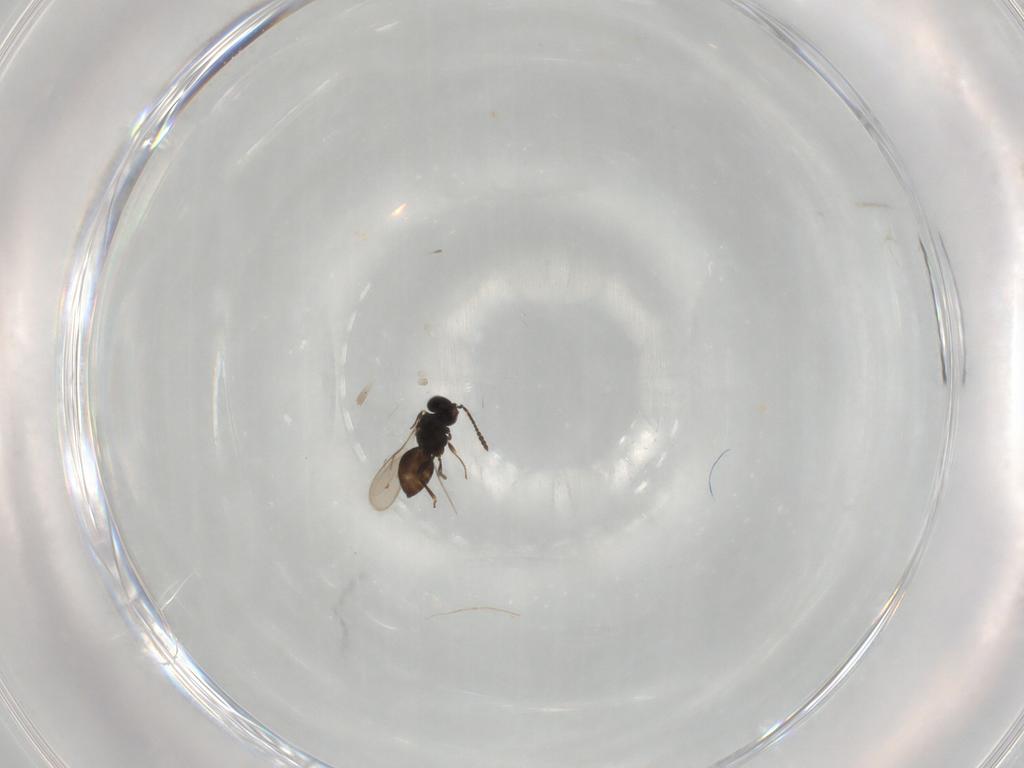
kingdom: Animalia
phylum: Arthropoda
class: Insecta
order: Hymenoptera
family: Scelionidae
